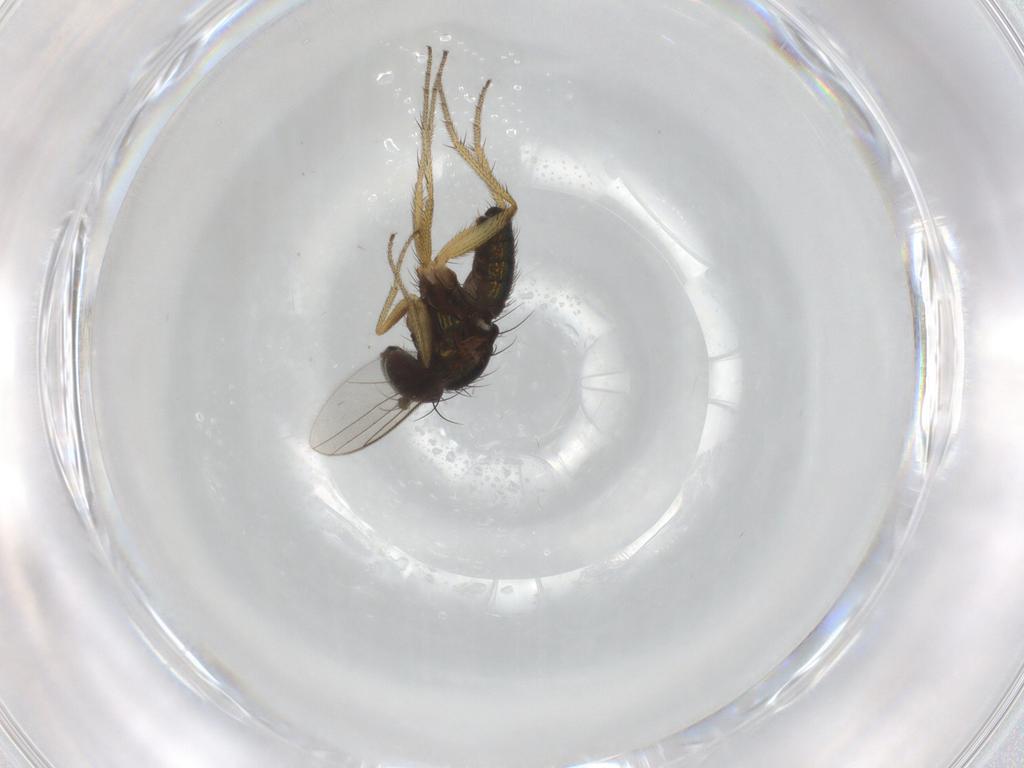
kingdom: Animalia
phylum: Arthropoda
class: Insecta
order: Diptera
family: Dolichopodidae
